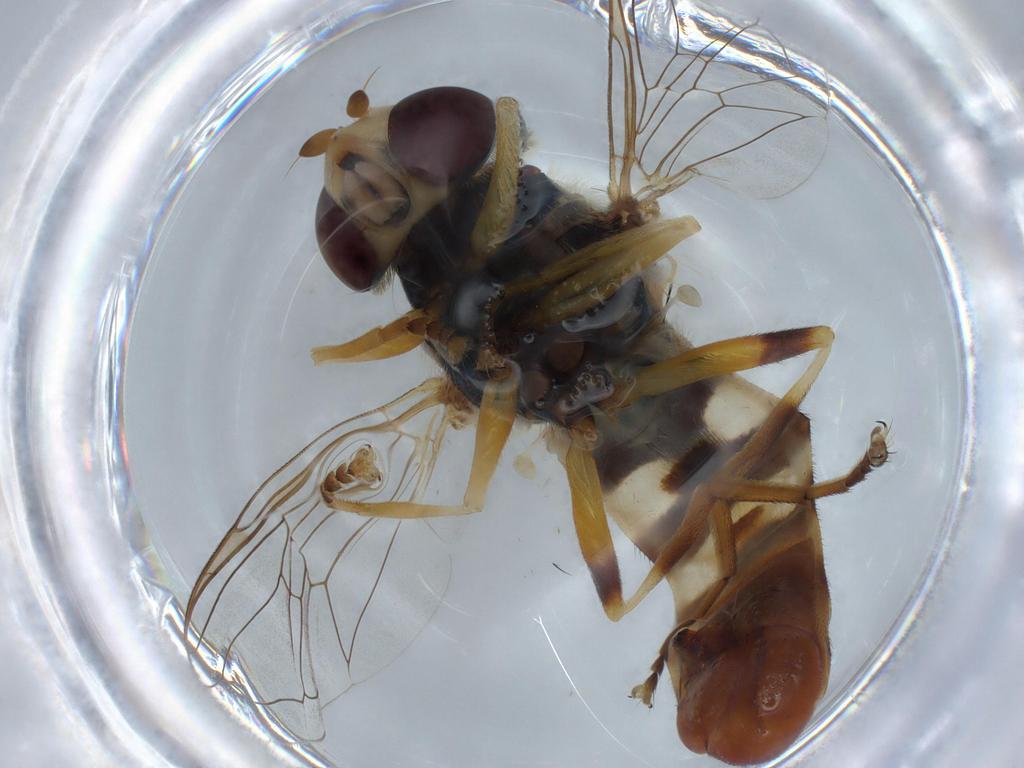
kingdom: Animalia
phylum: Arthropoda
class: Insecta
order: Diptera
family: Syrphidae
